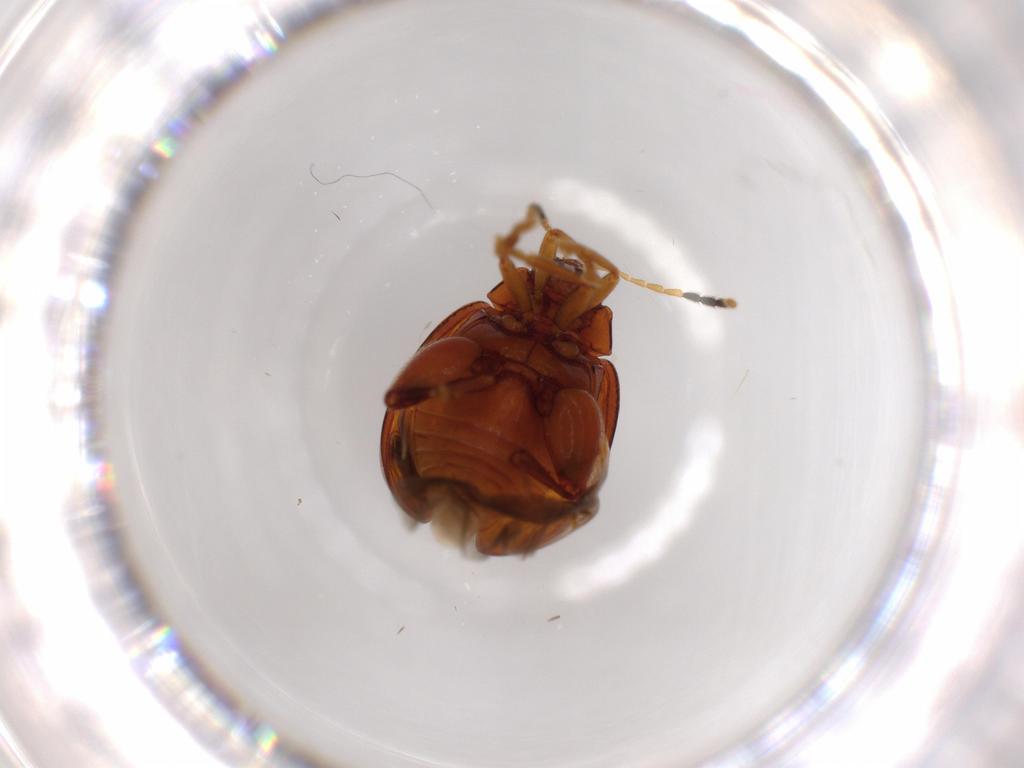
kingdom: Animalia
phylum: Arthropoda
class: Insecta
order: Coleoptera
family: Chrysomelidae
